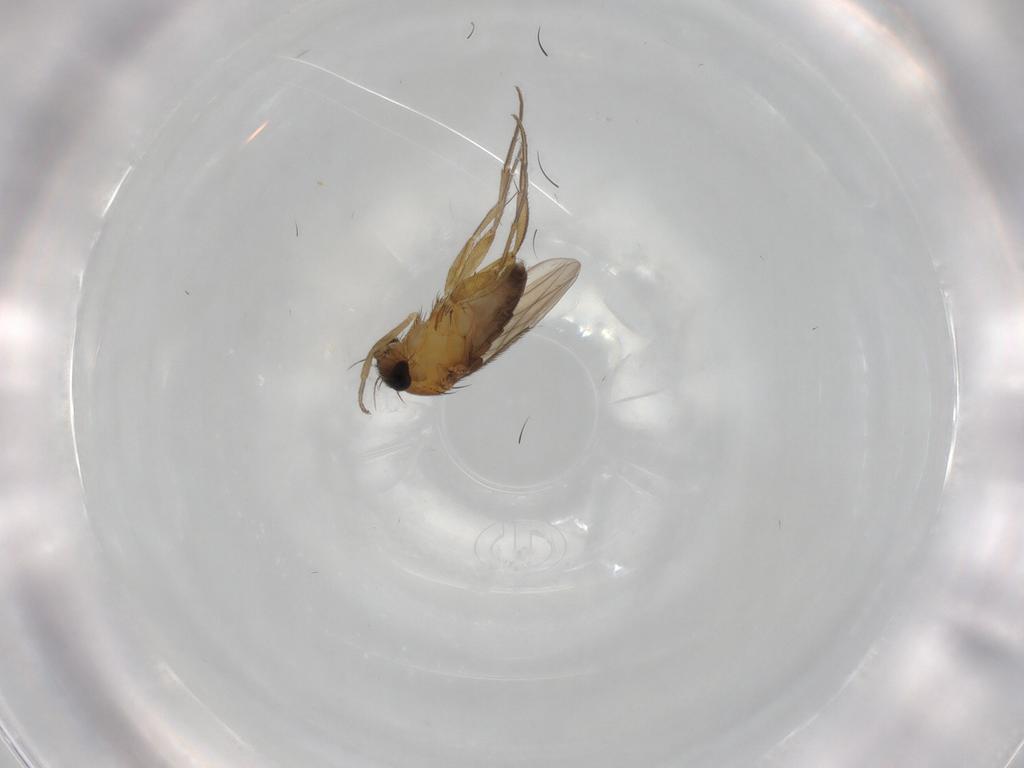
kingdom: Animalia
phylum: Arthropoda
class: Insecta
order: Diptera
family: Phoridae
